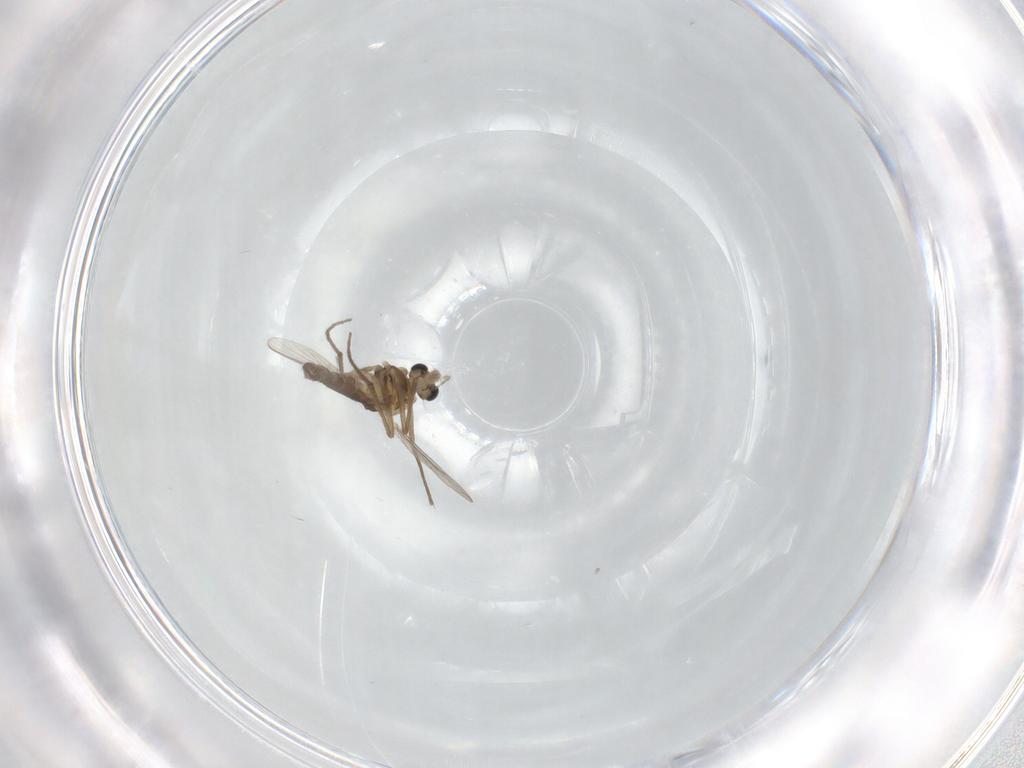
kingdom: Animalia
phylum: Arthropoda
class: Insecta
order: Diptera
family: Chironomidae
